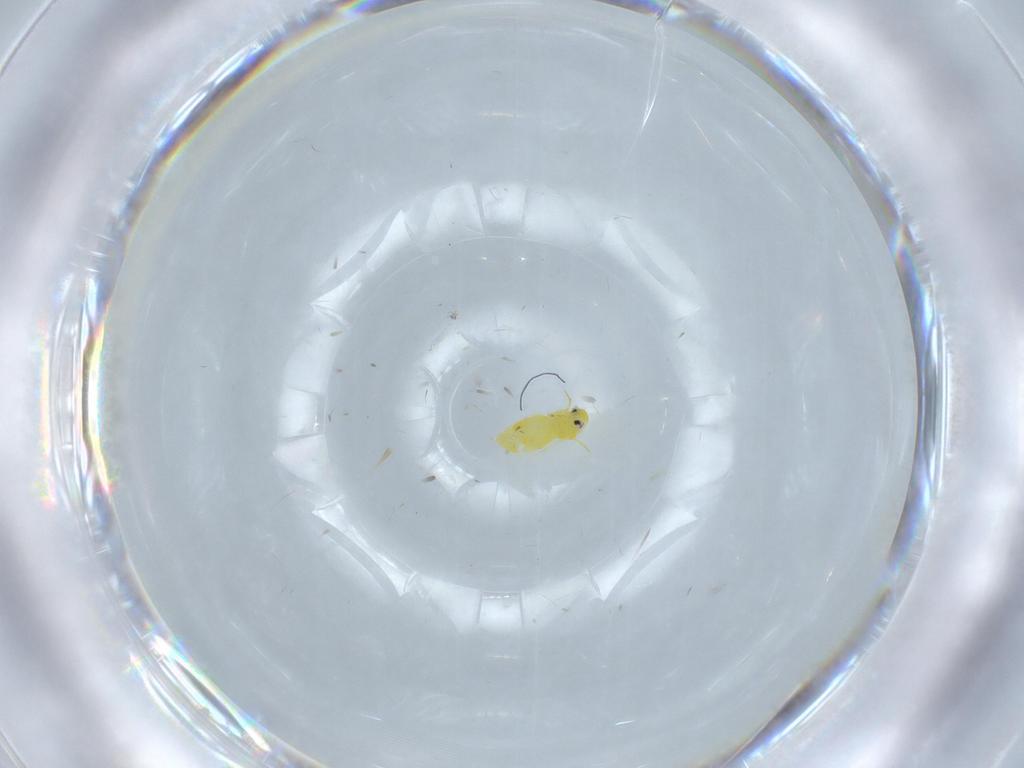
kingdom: Animalia
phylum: Arthropoda
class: Insecta
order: Hemiptera
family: Aleyrodidae
